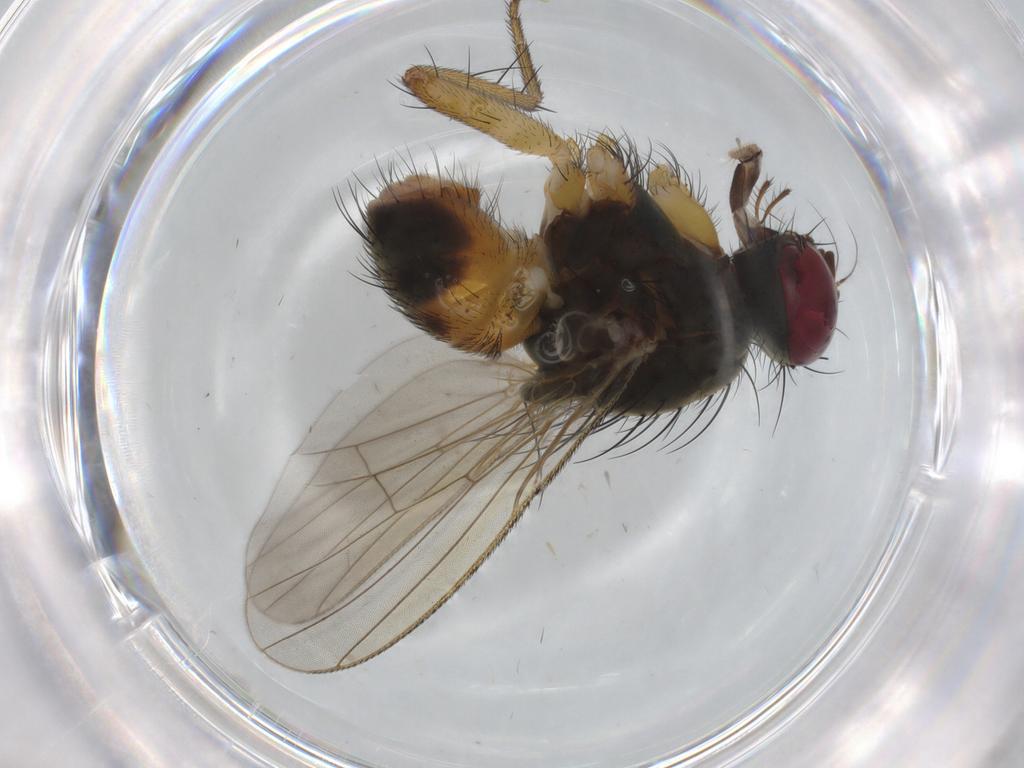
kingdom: Animalia
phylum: Arthropoda
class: Insecta
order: Diptera
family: Muscidae
